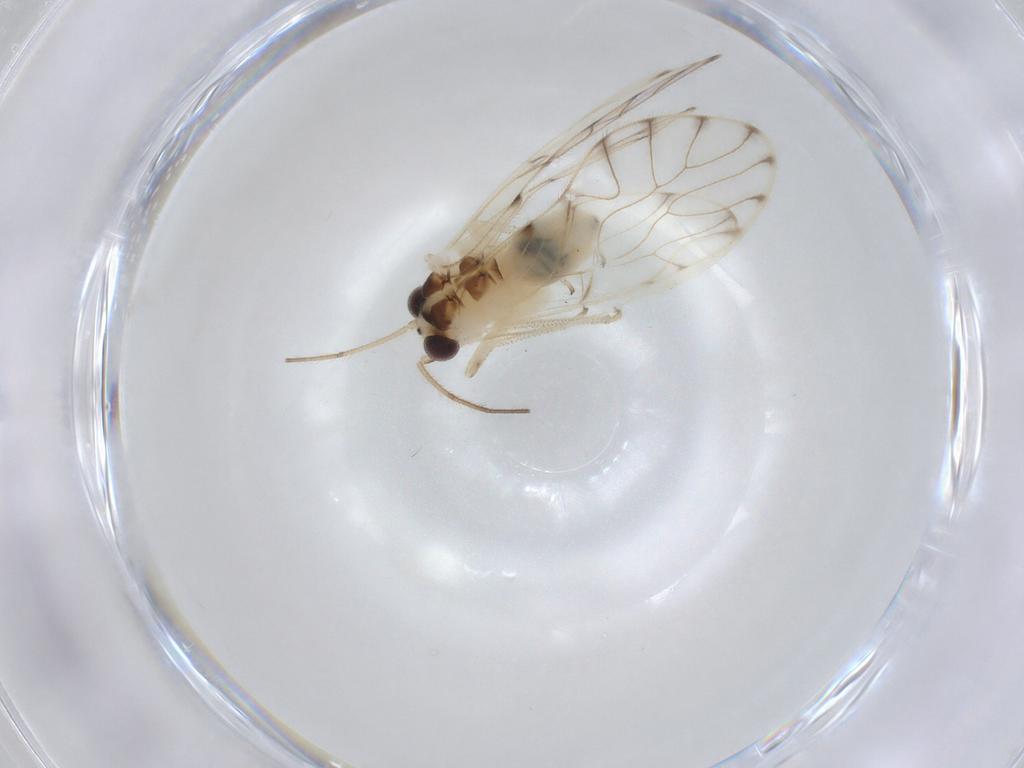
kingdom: Animalia
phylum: Arthropoda
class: Insecta
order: Psocodea
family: Philotarsidae
